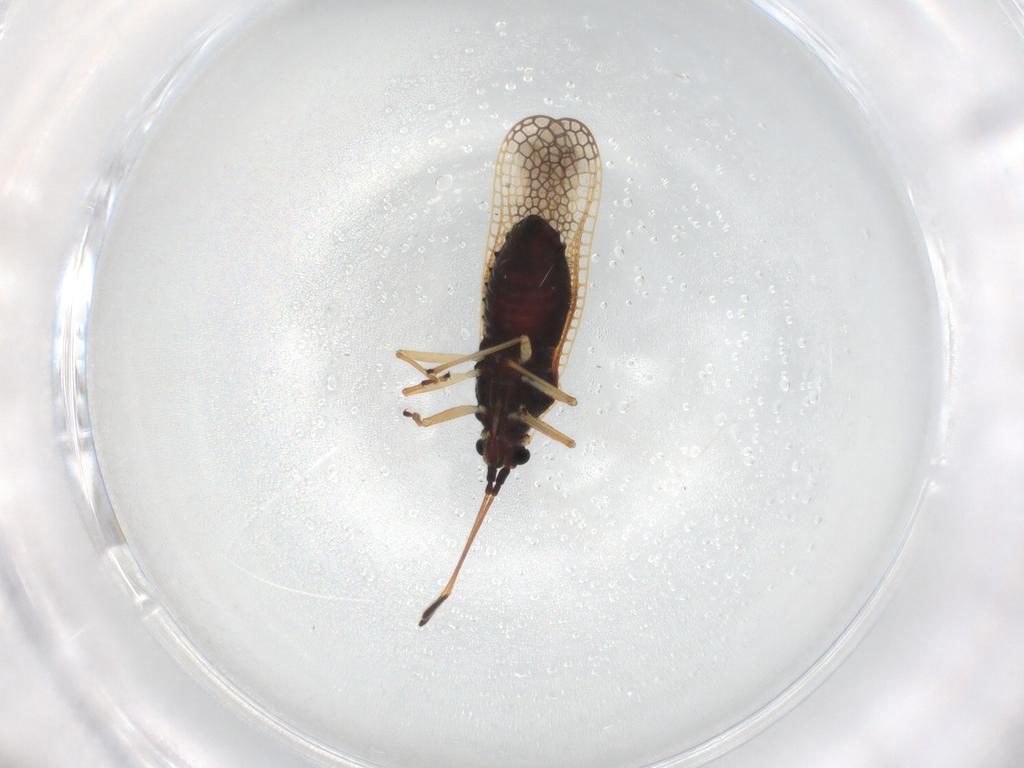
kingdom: Animalia
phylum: Arthropoda
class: Insecta
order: Hemiptera
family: Tingidae
